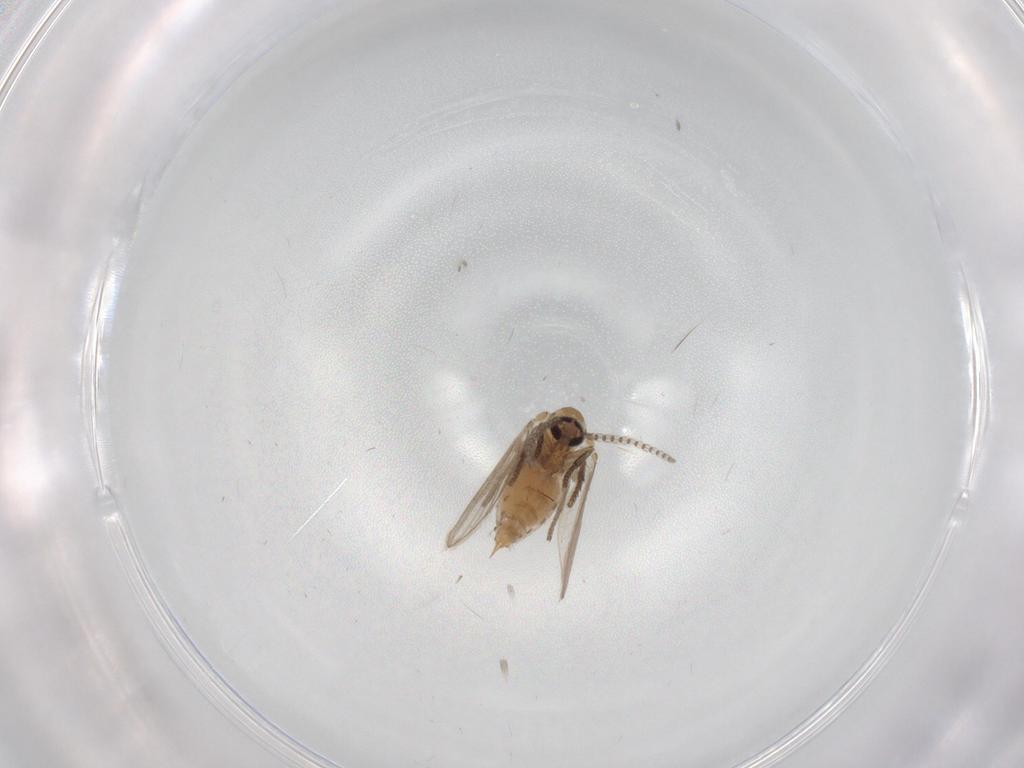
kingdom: Animalia
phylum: Arthropoda
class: Insecta
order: Diptera
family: Psychodidae
